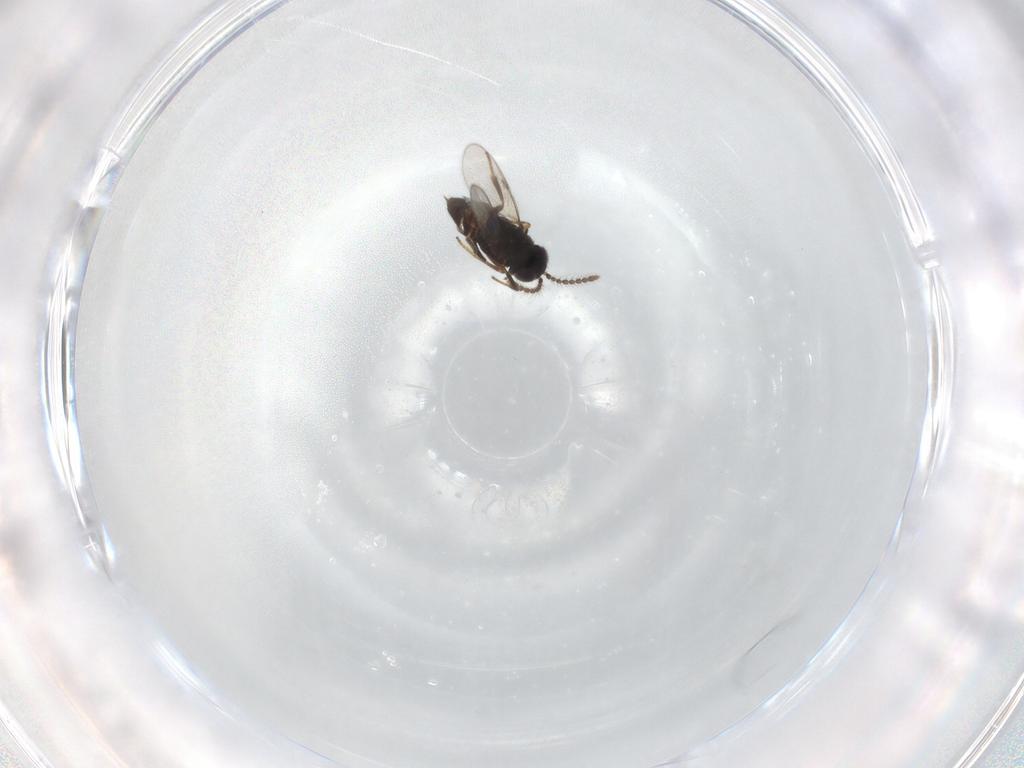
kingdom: Animalia
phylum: Arthropoda
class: Insecta
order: Hymenoptera
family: Encyrtidae
